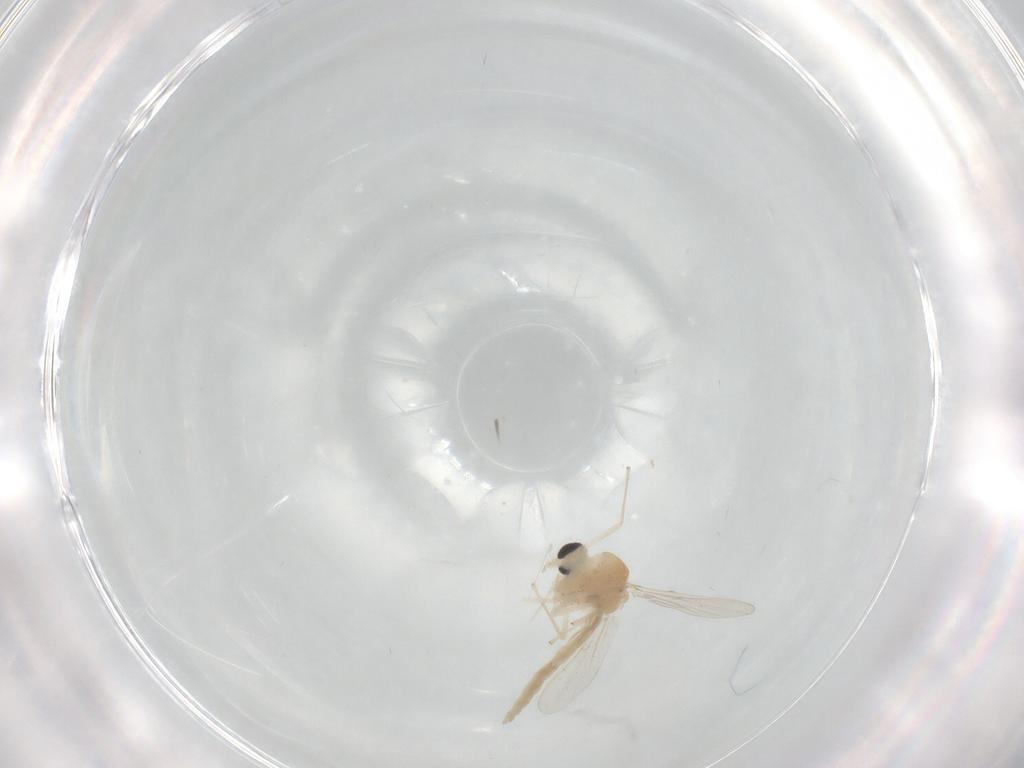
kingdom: Animalia
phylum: Arthropoda
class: Insecta
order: Diptera
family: Chironomidae
